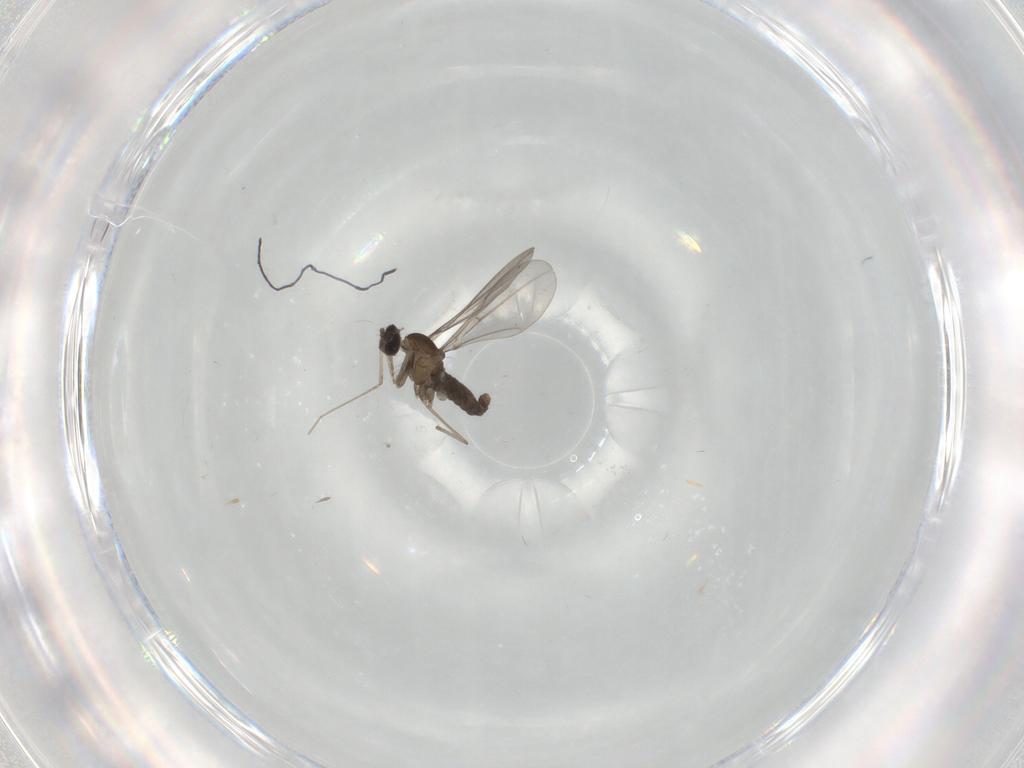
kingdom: Animalia
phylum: Arthropoda
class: Insecta
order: Diptera
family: Cecidomyiidae
